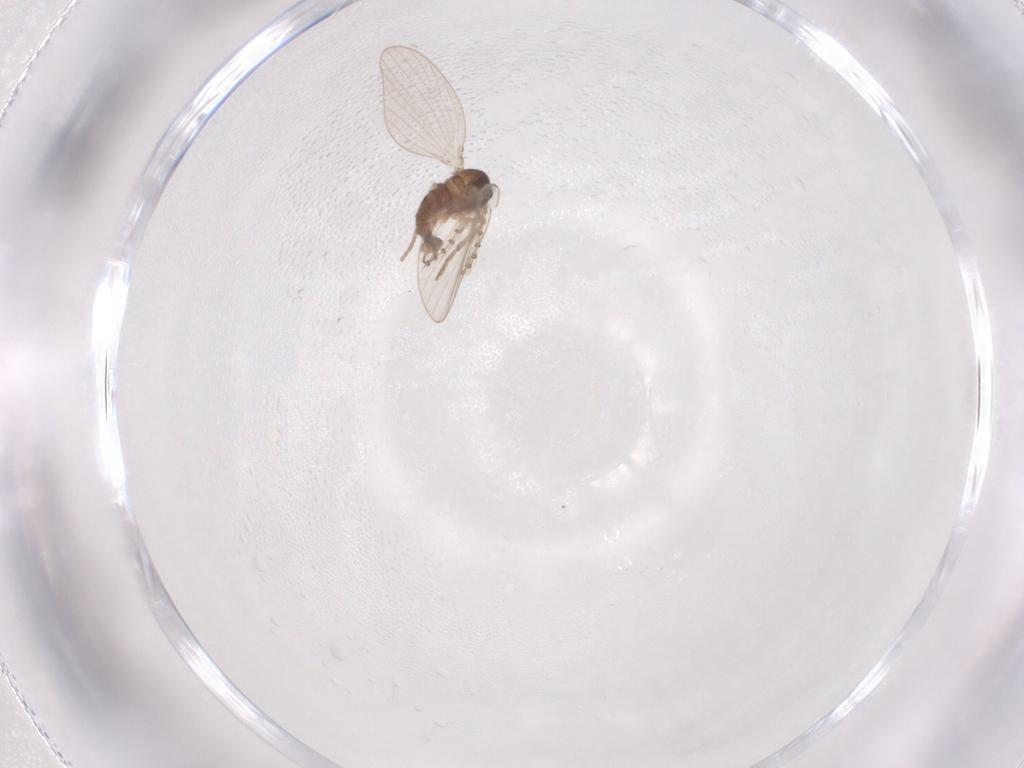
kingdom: Animalia
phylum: Arthropoda
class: Insecta
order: Diptera
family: Psychodidae
